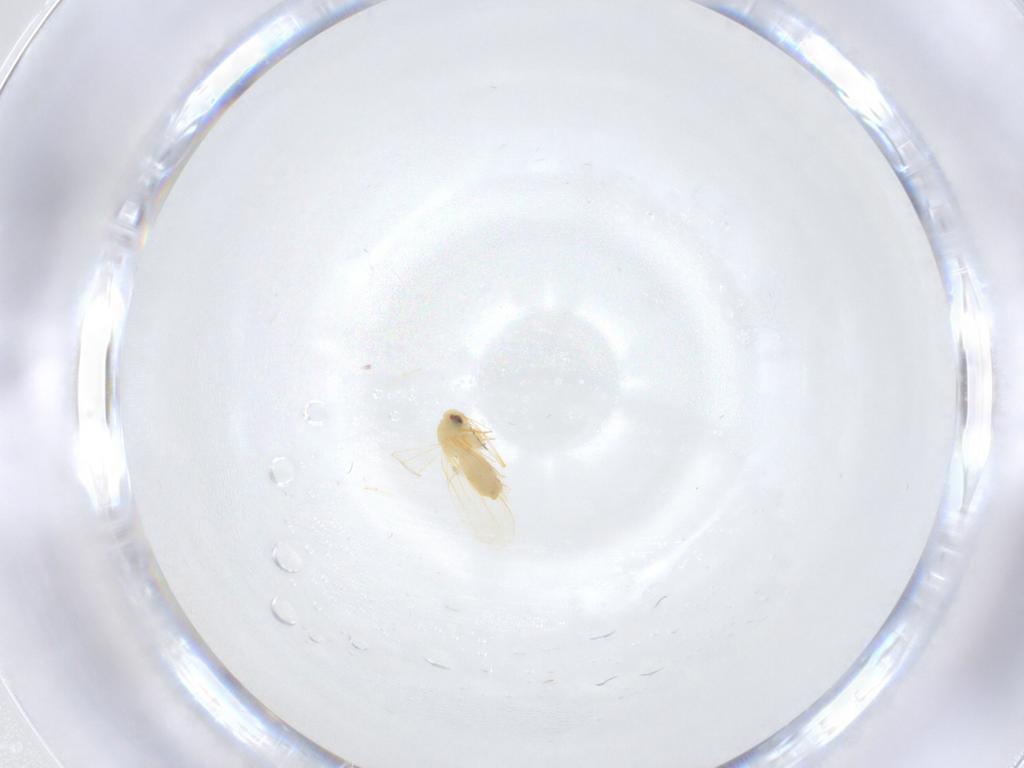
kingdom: Animalia
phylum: Arthropoda
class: Insecta
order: Hemiptera
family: Aleyrodidae
